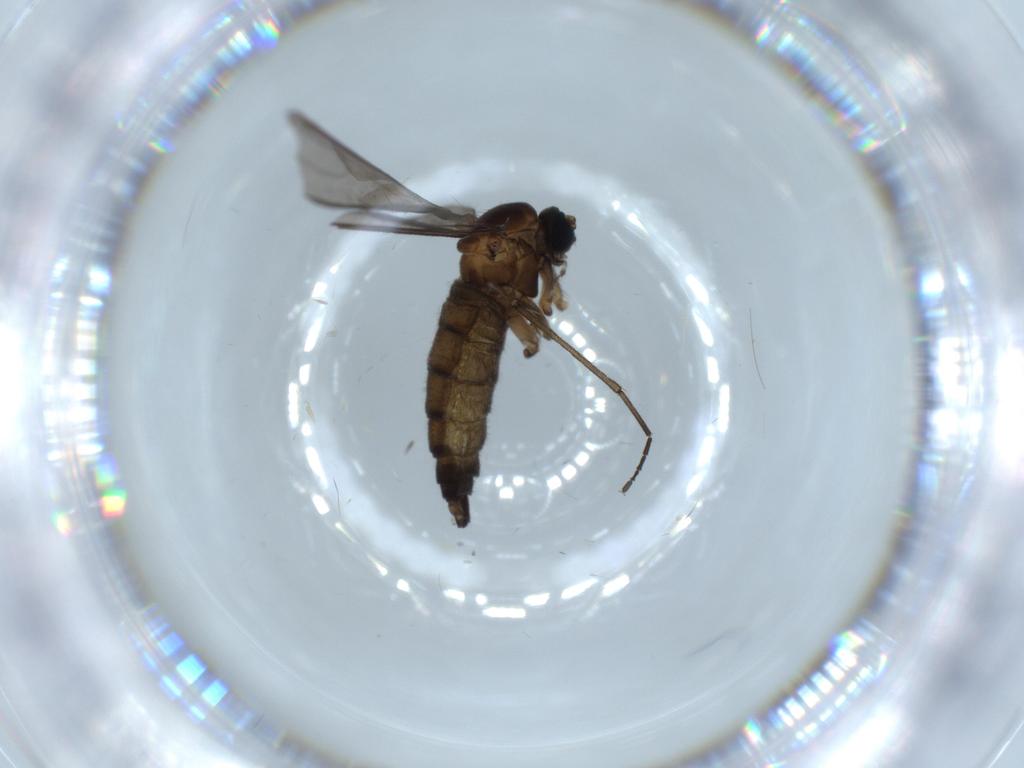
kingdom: Animalia
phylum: Arthropoda
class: Insecta
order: Diptera
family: Sciaridae
